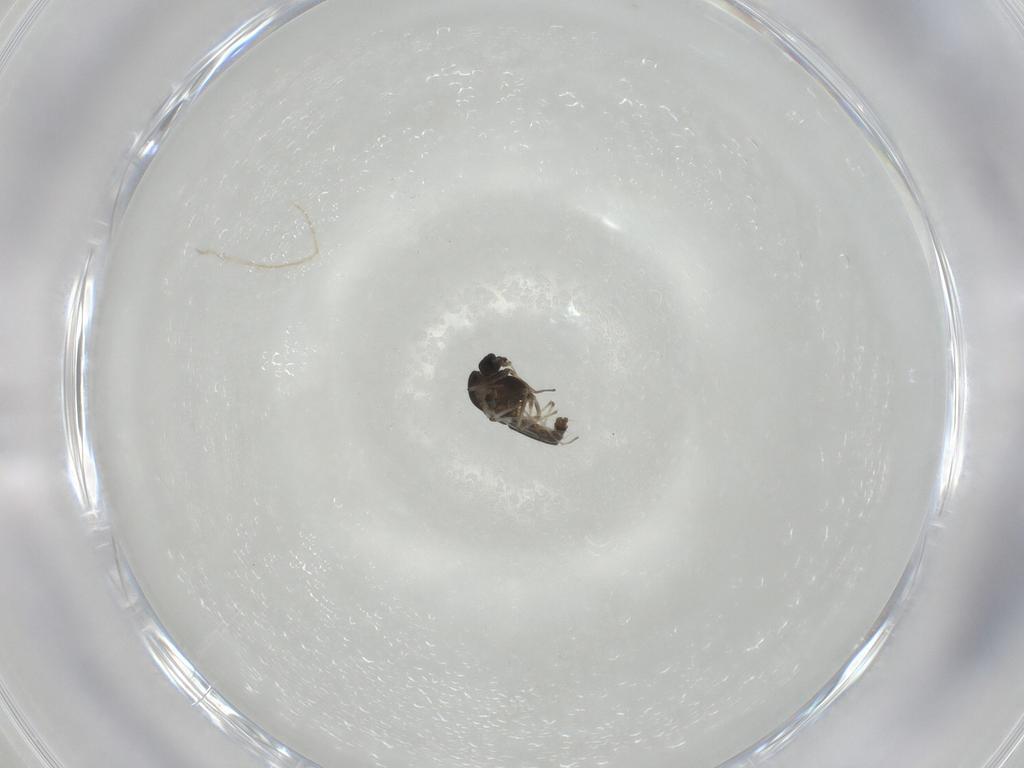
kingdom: Animalia
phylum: Arthropoda
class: Insecta
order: Diptera
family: Chironomidae
